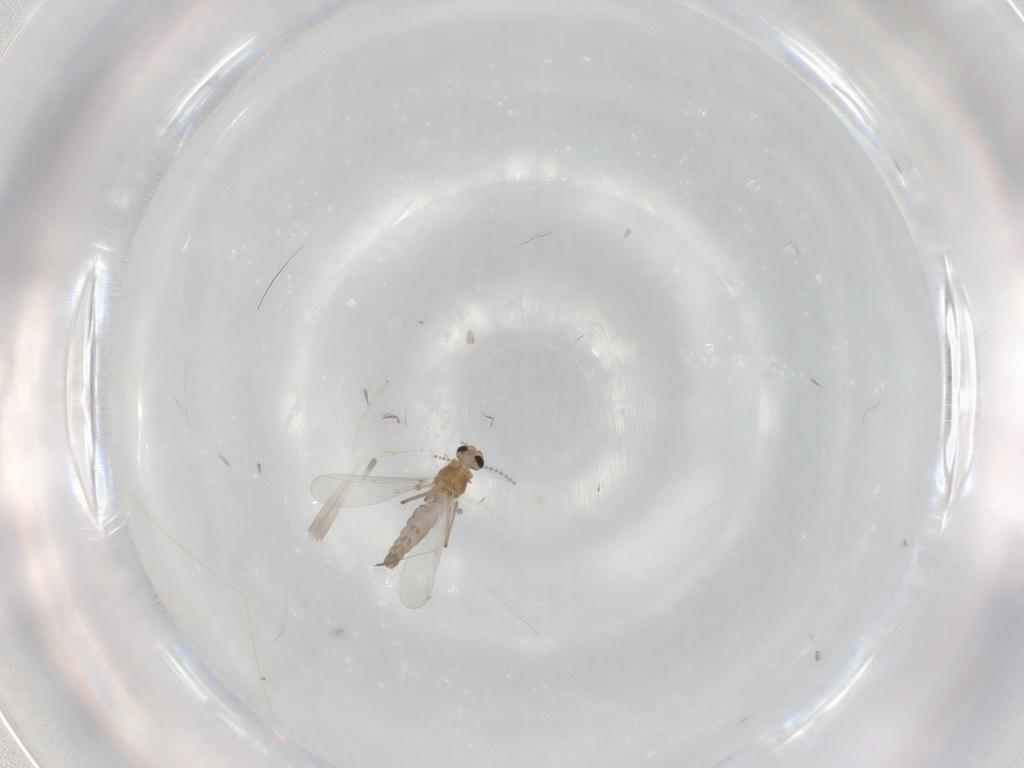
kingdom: Animalia
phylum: Arthropoda
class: Insecta
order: Diptera
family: Chironomidae
